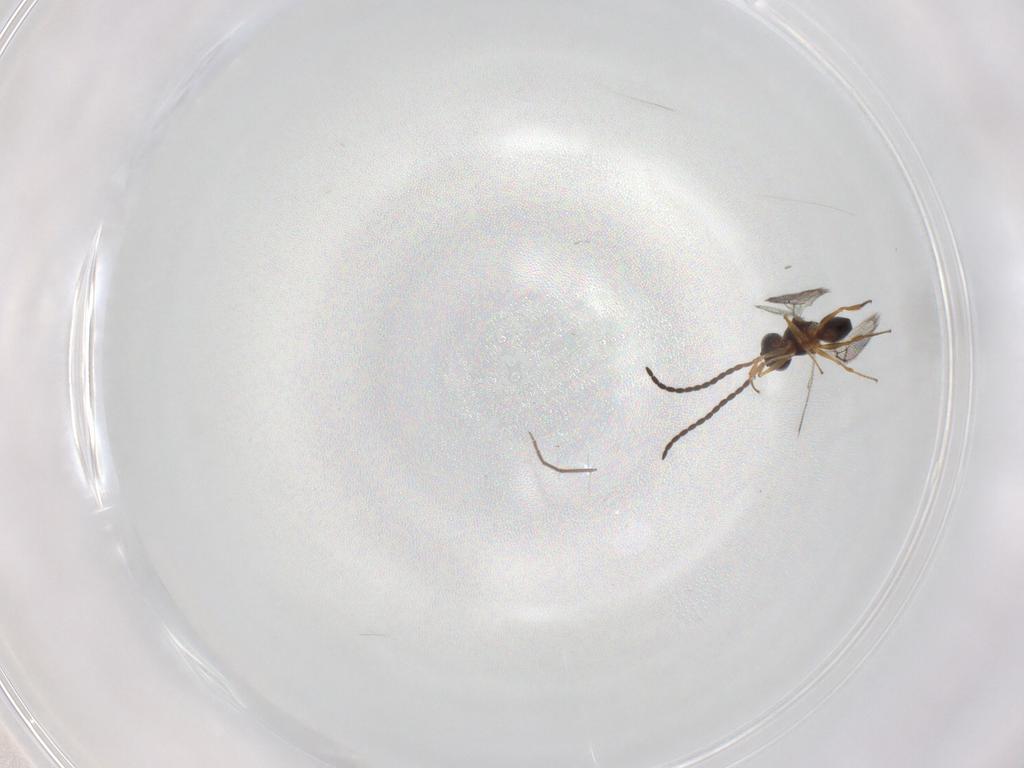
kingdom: Animalia
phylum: Arthropoda
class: Insecta
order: Hymenoptera
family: Figitidae
